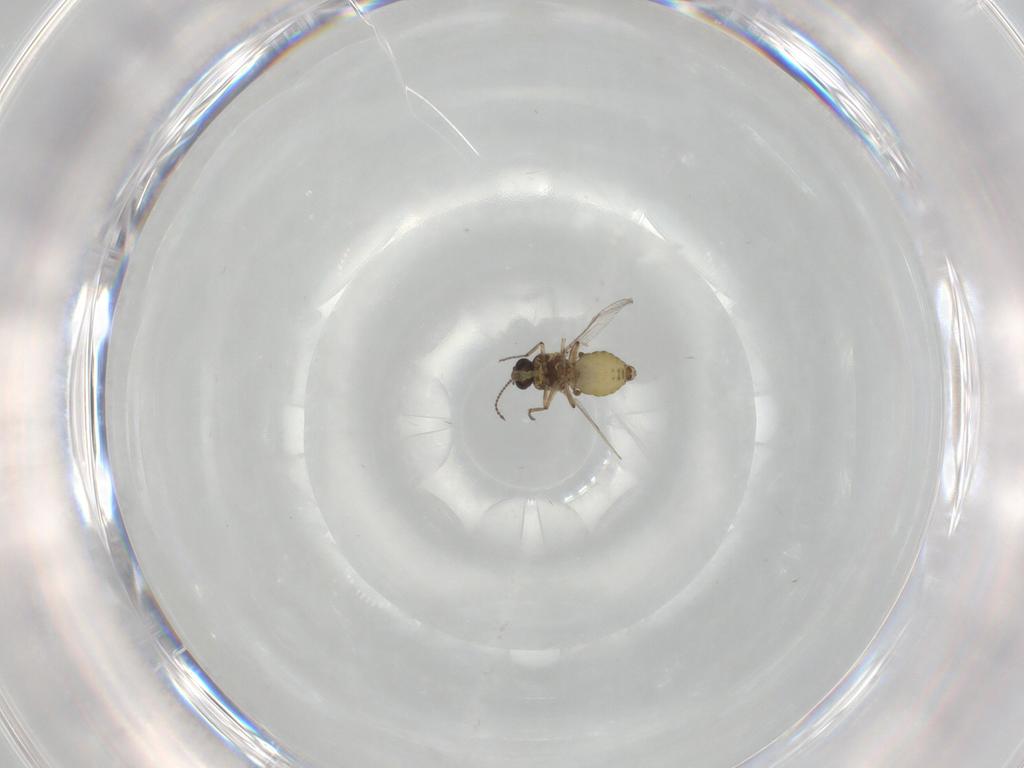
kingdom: Animalia
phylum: Arthropoda
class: Insecta
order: Diptera
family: Ceratopogonidae
